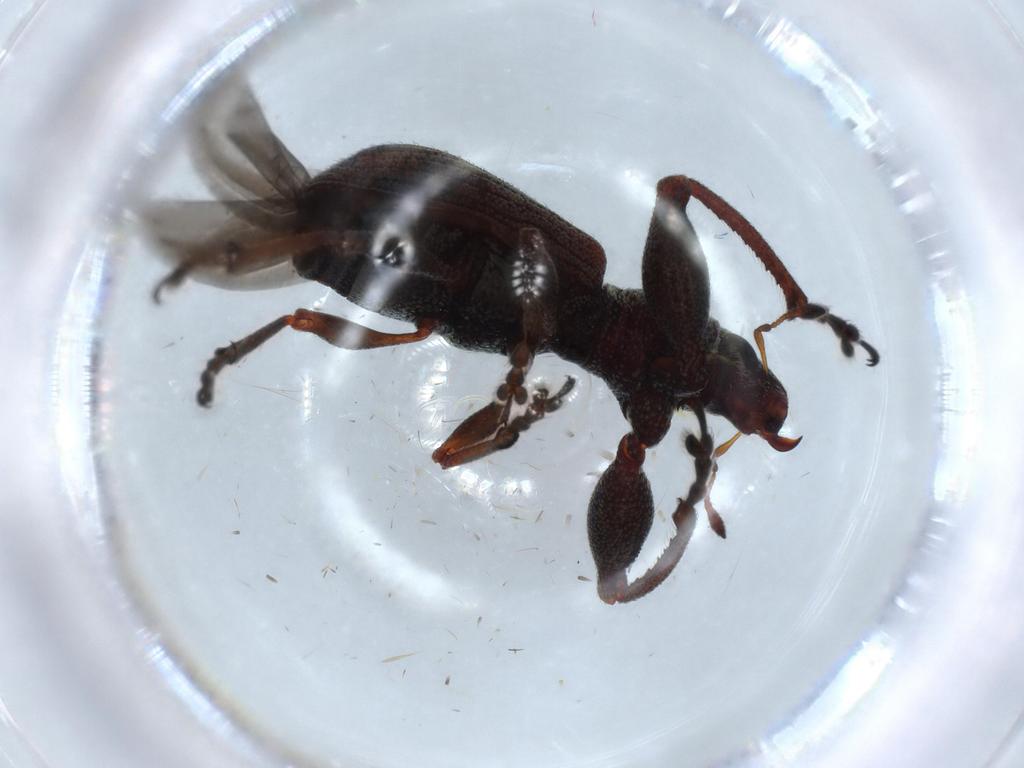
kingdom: Animalia
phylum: Arthropoda
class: Insecta
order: Coleoptera
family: Curculionidae
